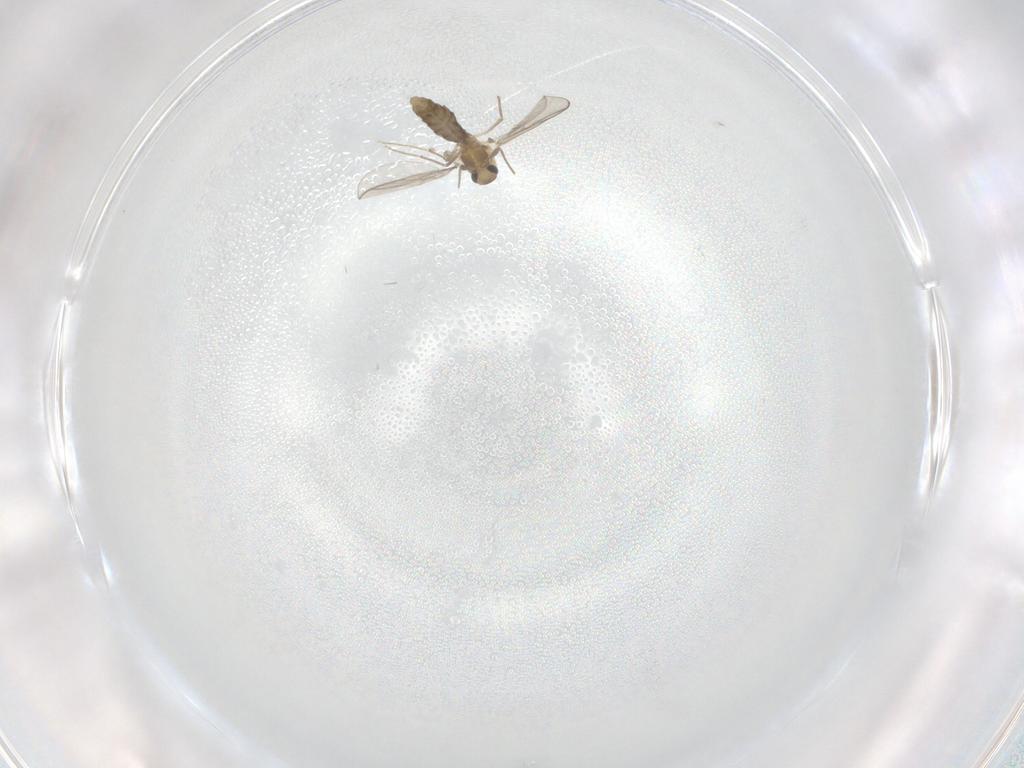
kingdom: Animalia
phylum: Arthropoda
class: Insecta
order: Diptera
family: Chironomidae
